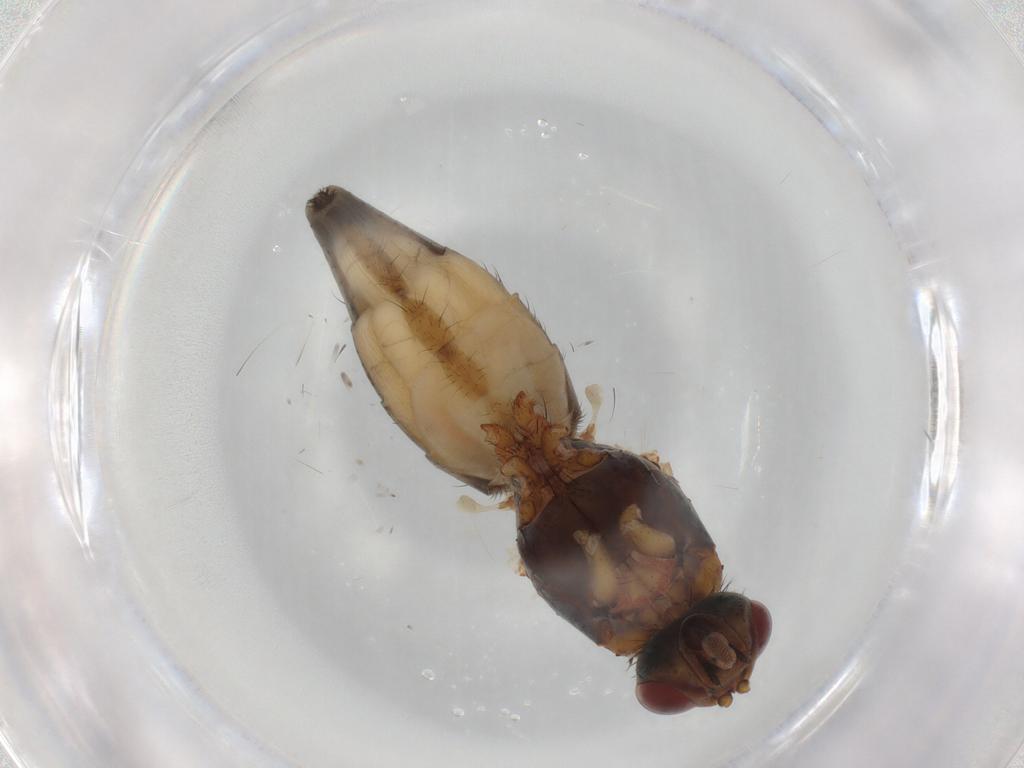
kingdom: Animalia
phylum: Arthropoda
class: Insecta
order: Diptera
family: Anthomyiidae
